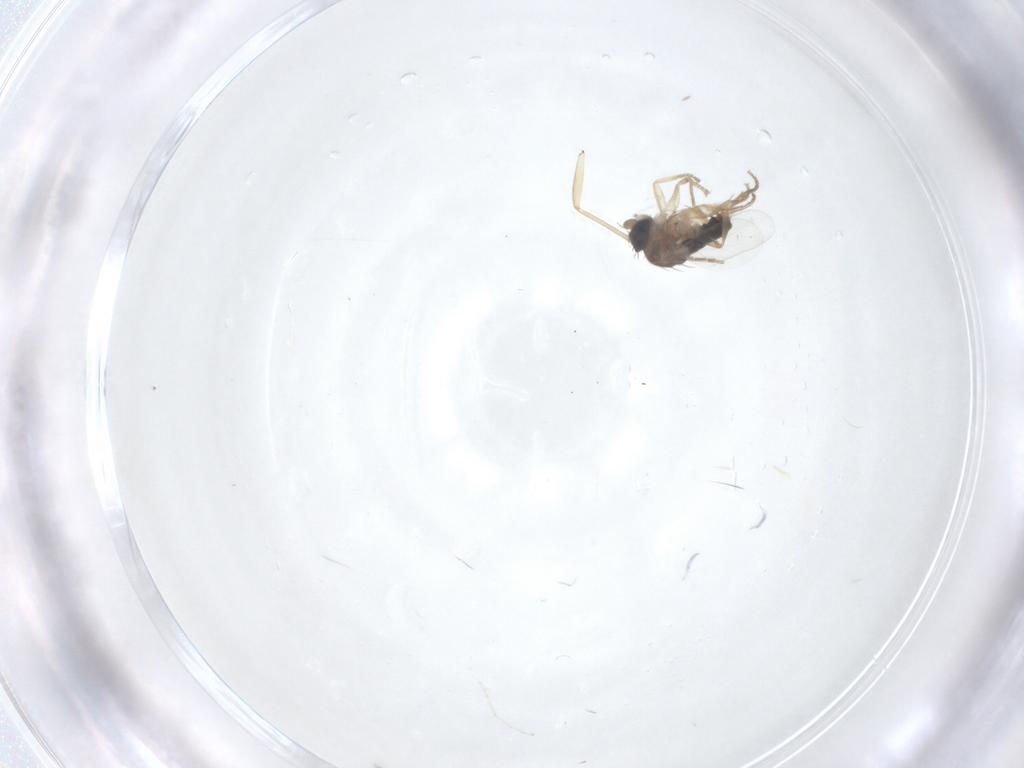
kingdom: Animalia
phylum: Arthropoda
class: Insecta
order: Diptera
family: Cecidomyiidae
